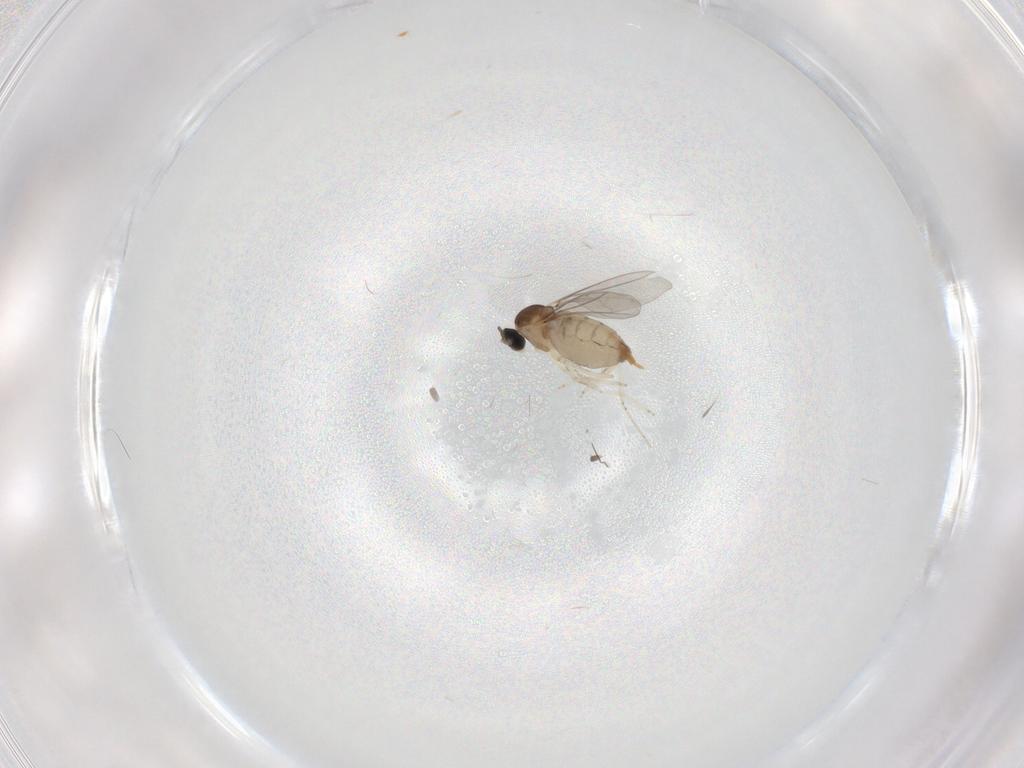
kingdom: Animalia
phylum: Arthropoda
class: Insecta
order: Diptera
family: Cecidomyiidae
